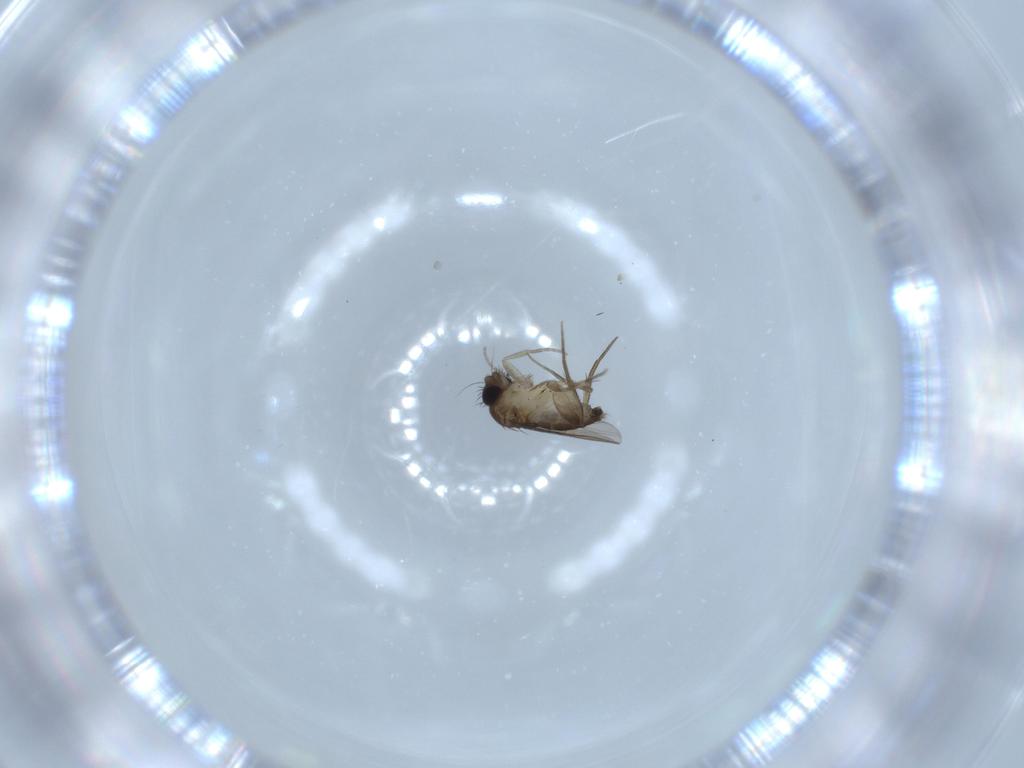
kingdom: Animalia
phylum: Arthropoda
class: Insecta
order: Diptera
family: Phoridae
